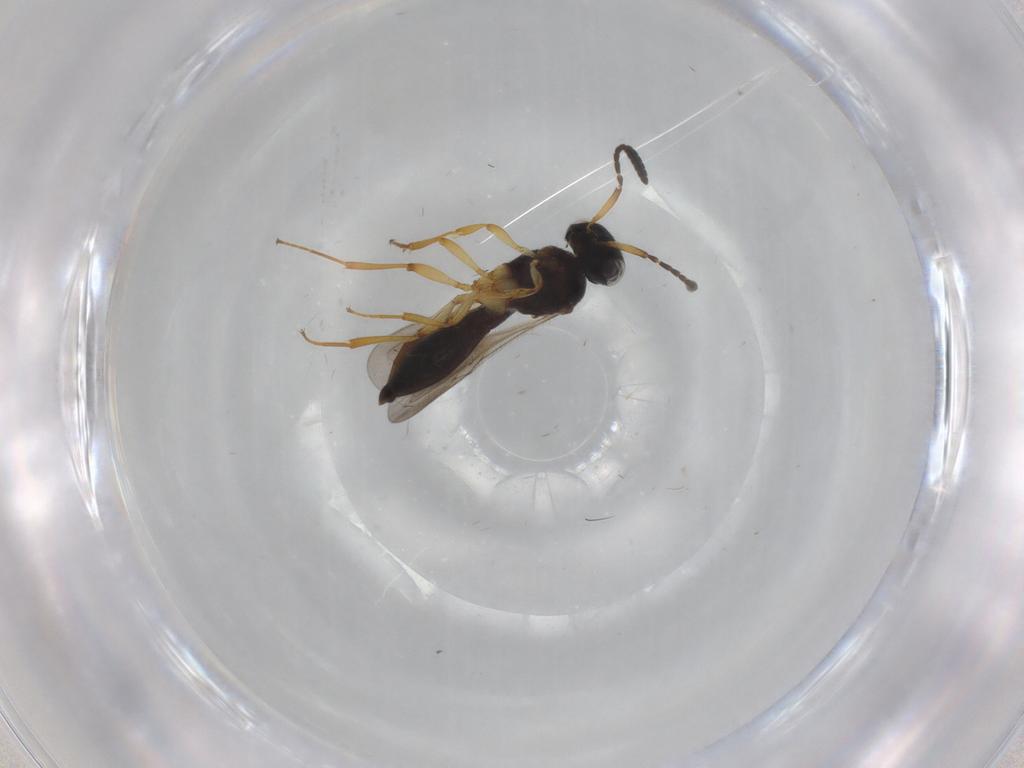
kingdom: Animalia
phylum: Arthropoda
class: Insecta
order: Hymenoptera
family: Scelionidae
